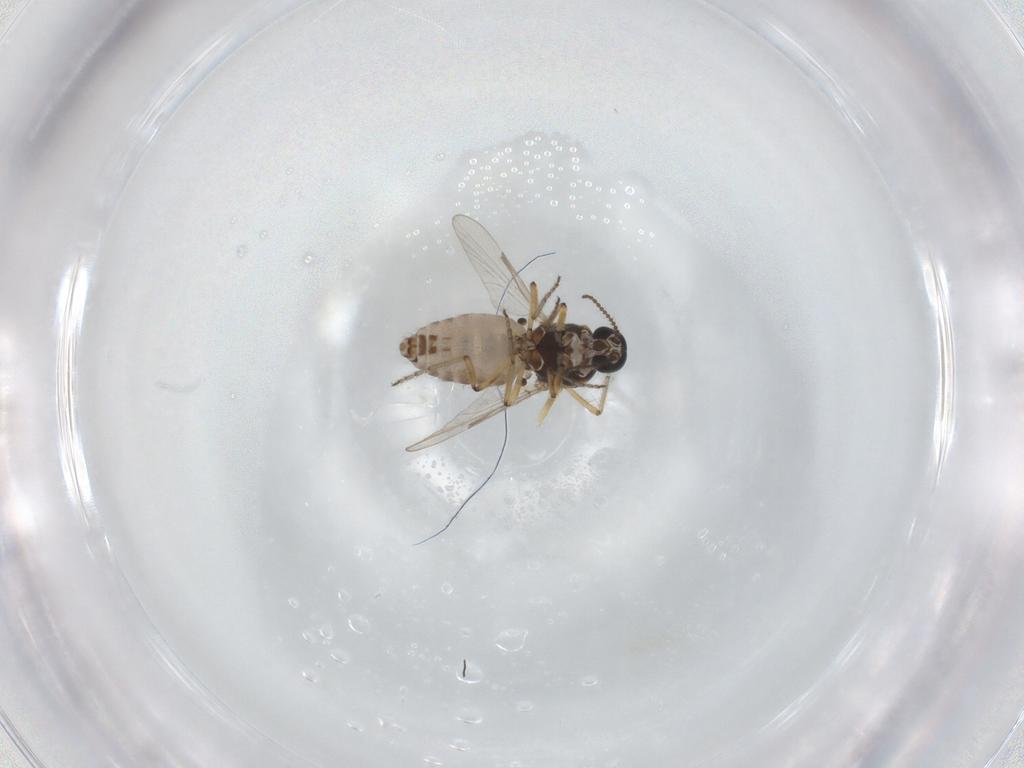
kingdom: Animalia
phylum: Arthropoda
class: Insecta
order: Diptera
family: Ceratopogonidae
